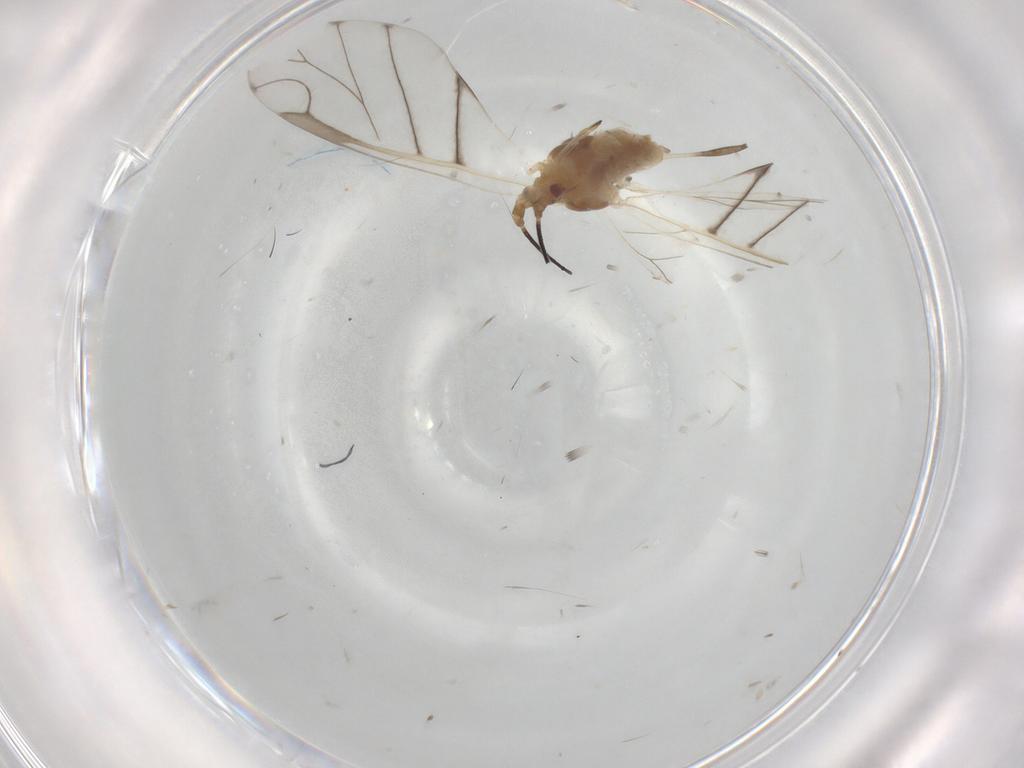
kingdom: Animalia
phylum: Arthropoda
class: Insecta
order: Hemiptera
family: Aphididae
